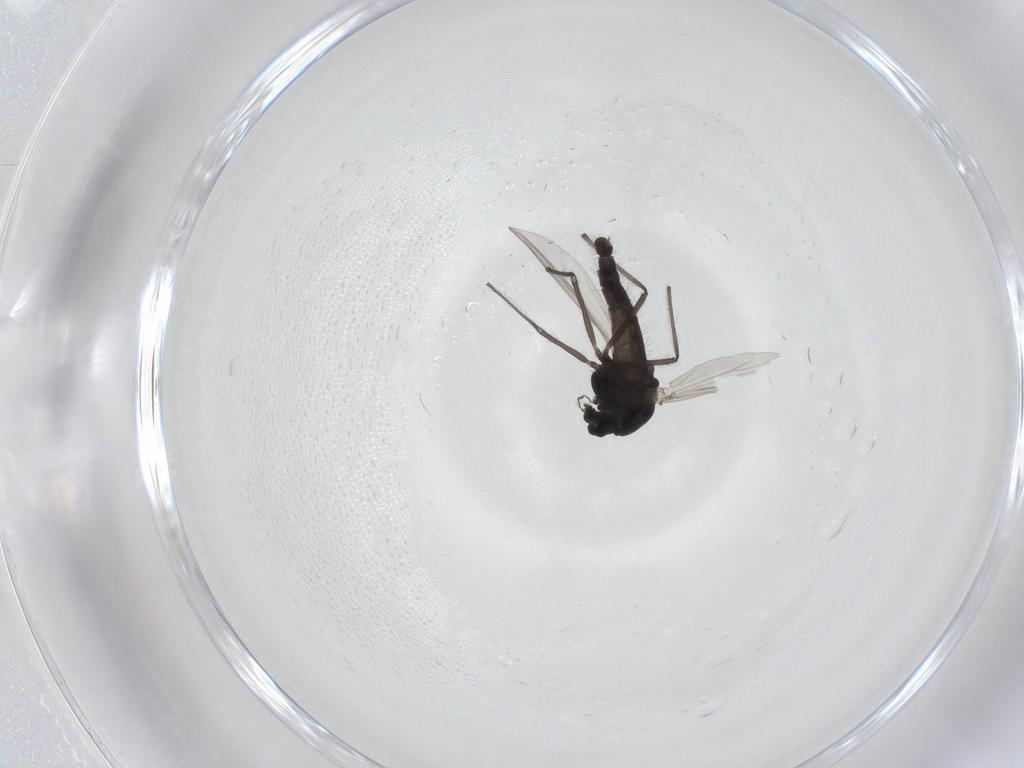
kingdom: Animalia
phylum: Arthropoda
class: Insecta
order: Diptera
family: Chironomidae
